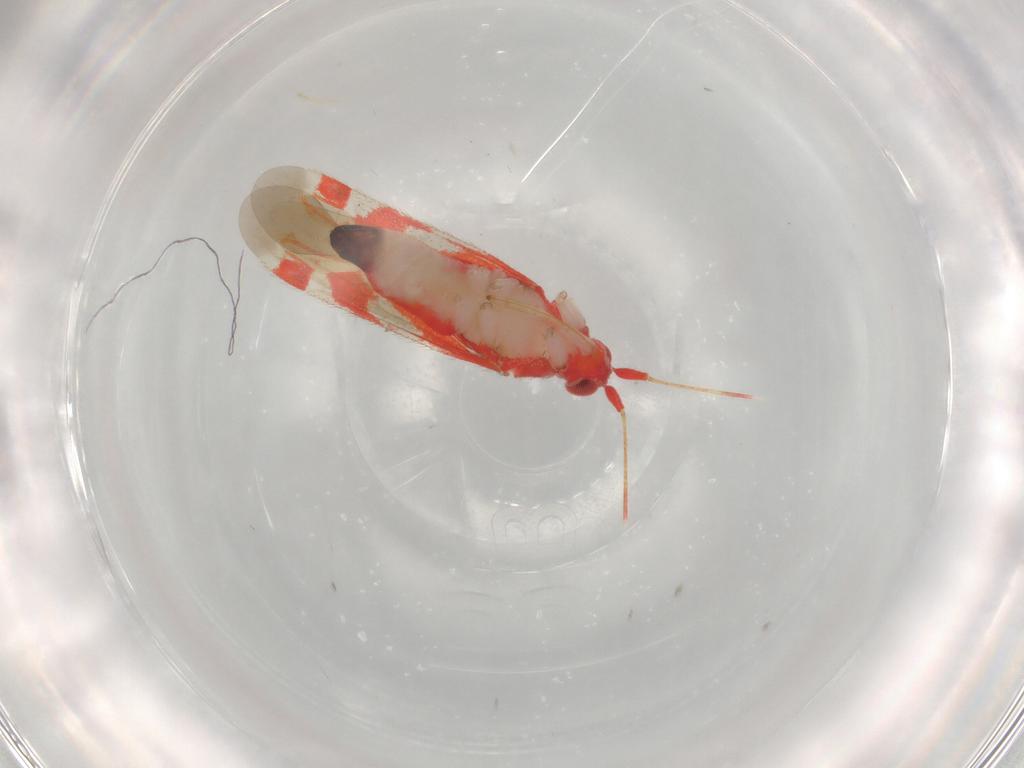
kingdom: Animalia
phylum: Arthropoda
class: Insecta
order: Hemiptera
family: Miridae
